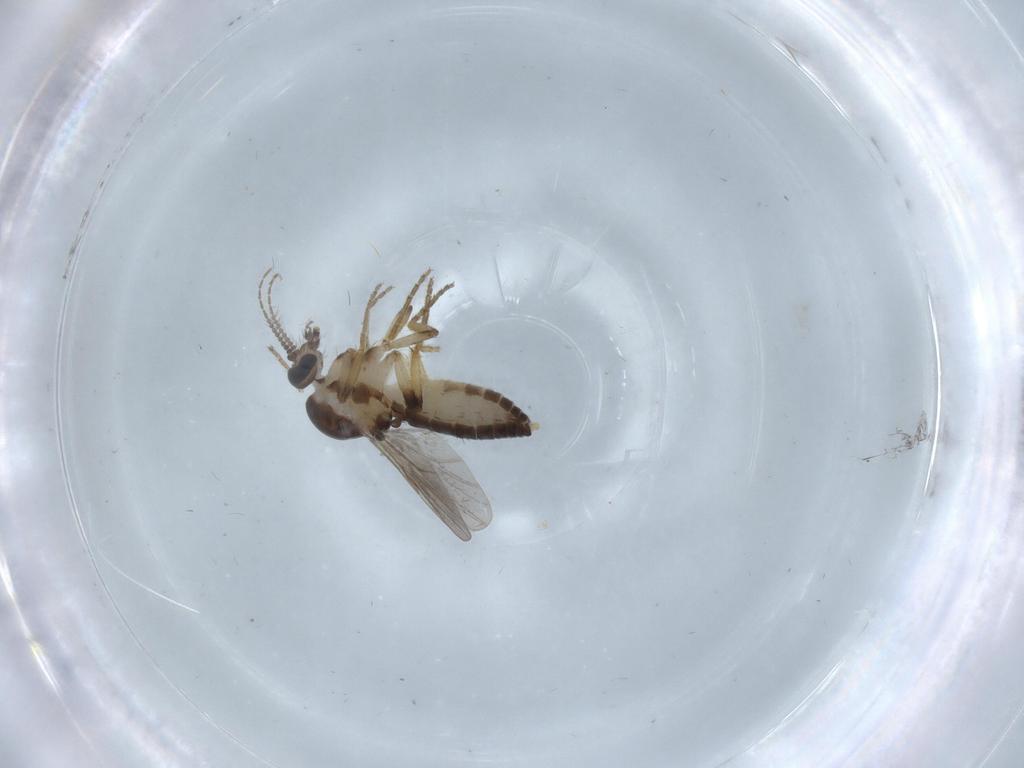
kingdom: Animalia
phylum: Arthropoda
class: Insecta
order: Diptera
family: Ceratopogonidae
